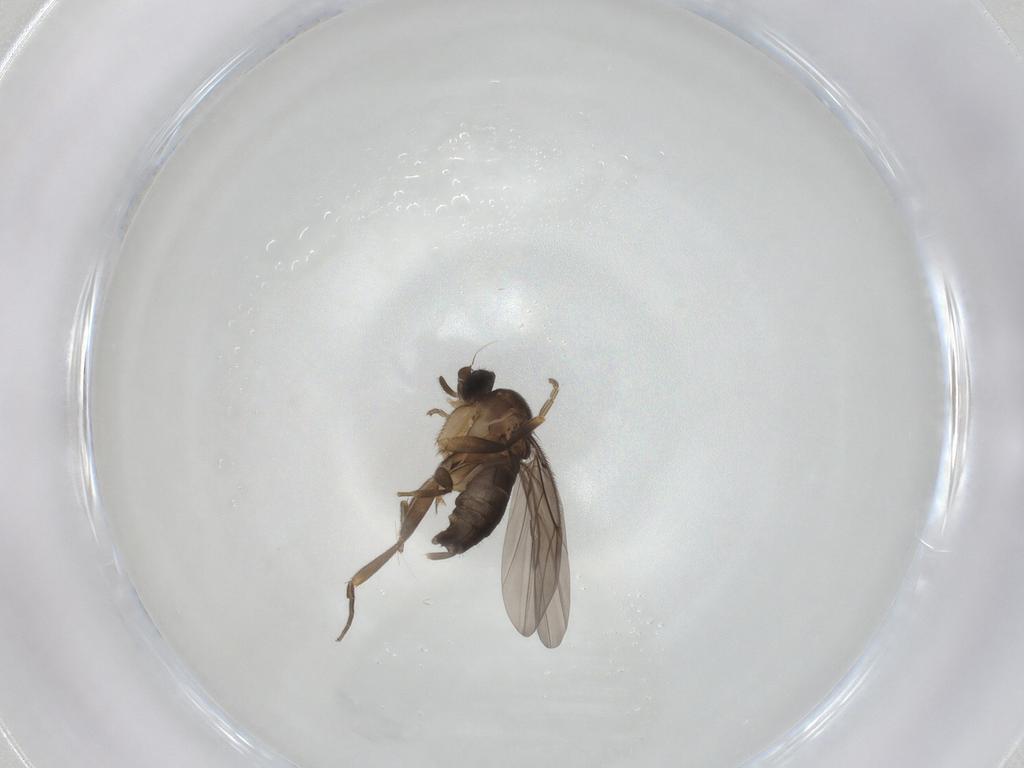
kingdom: Animalia
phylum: Arthropoda
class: Insecta
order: Diptera
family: Phoridae
